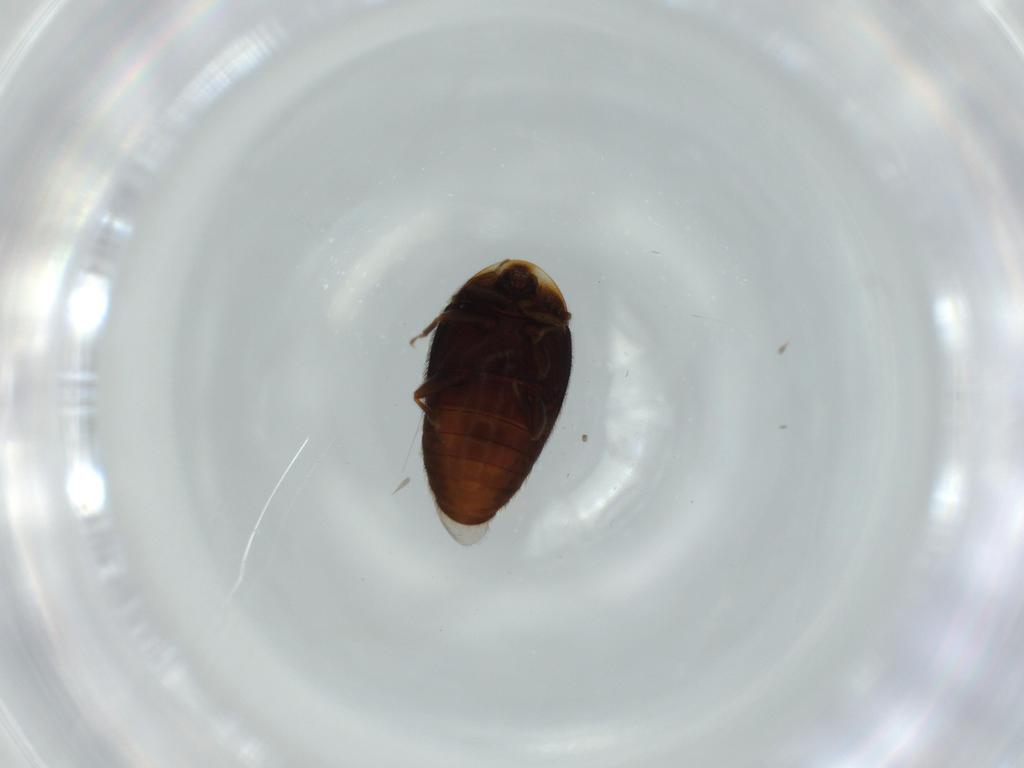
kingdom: Animalia
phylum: Arthropoda
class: Insecta
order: Coleoptera
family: Corylophidae
